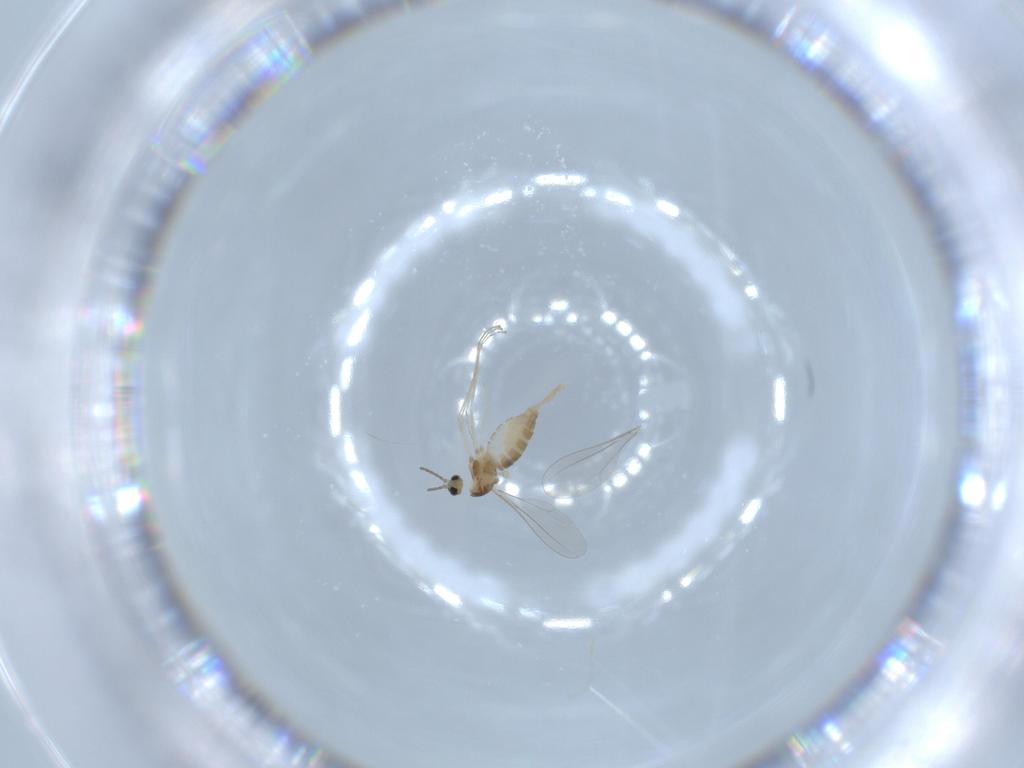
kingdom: Animalia
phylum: Arthropoda
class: Insecta
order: Diptera
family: Cecidomyiidae
